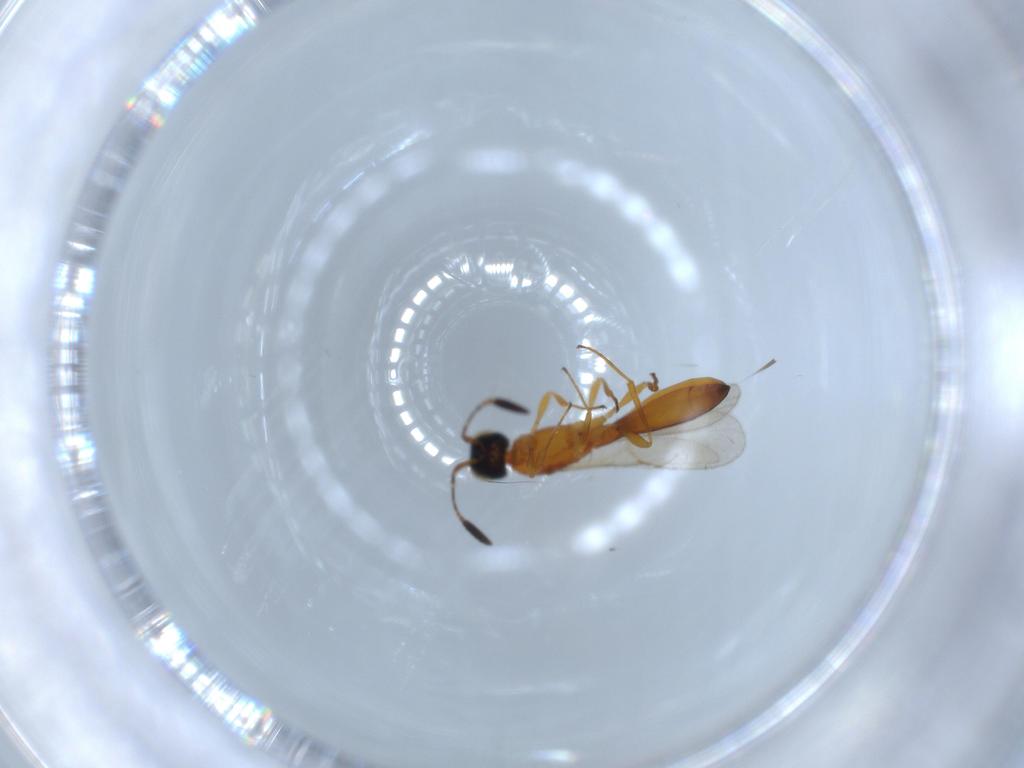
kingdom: Animalia
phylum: Arthropoda
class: Insecta
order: Hymenoptera
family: Scelionidae
